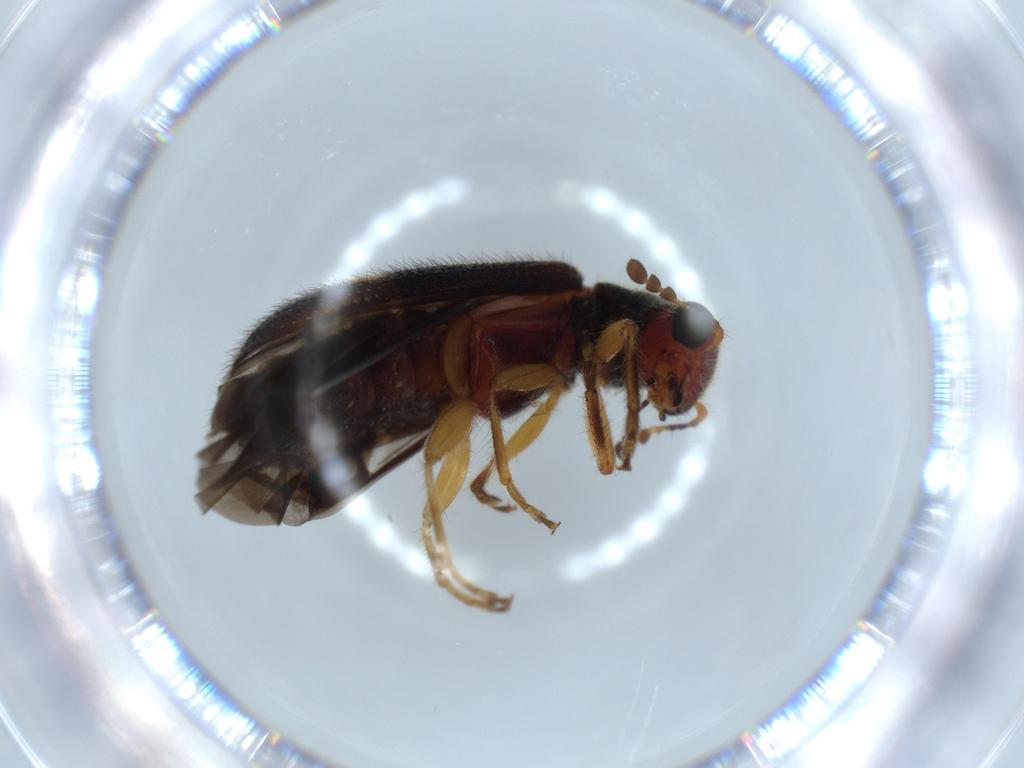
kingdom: Animalia
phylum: Arthropoda
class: Insecta
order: Coleoptera
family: Cleridae
